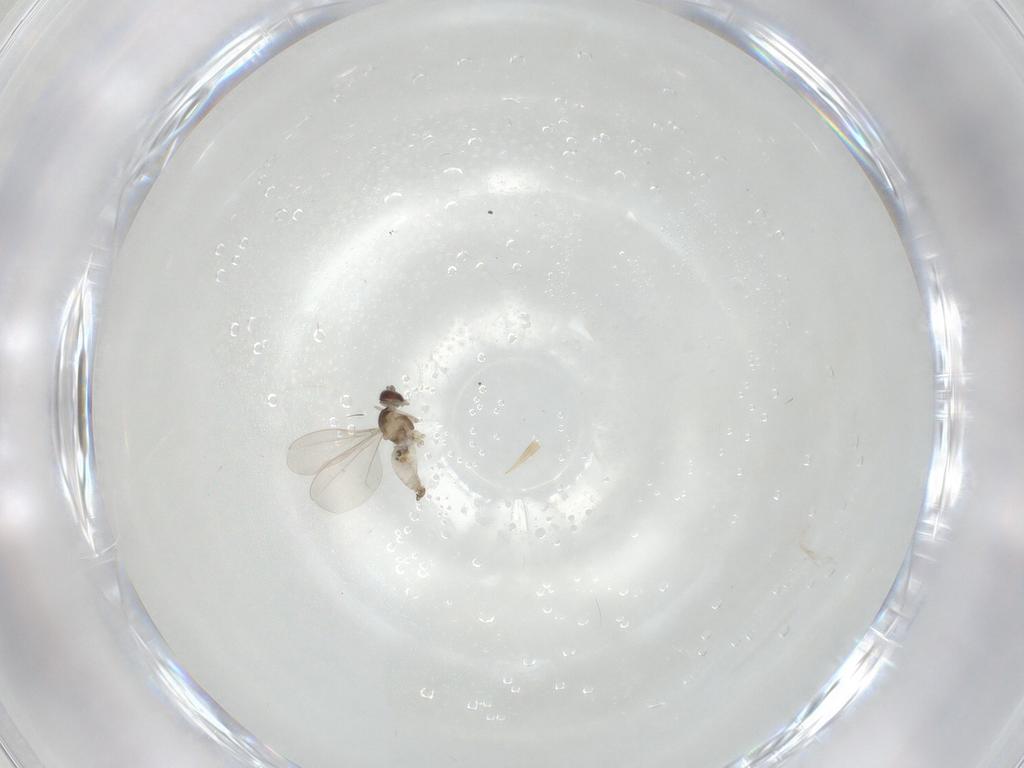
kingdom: Animalia
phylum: Arthropoda
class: Insecta
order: Diptera
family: Cecidomyiidae
